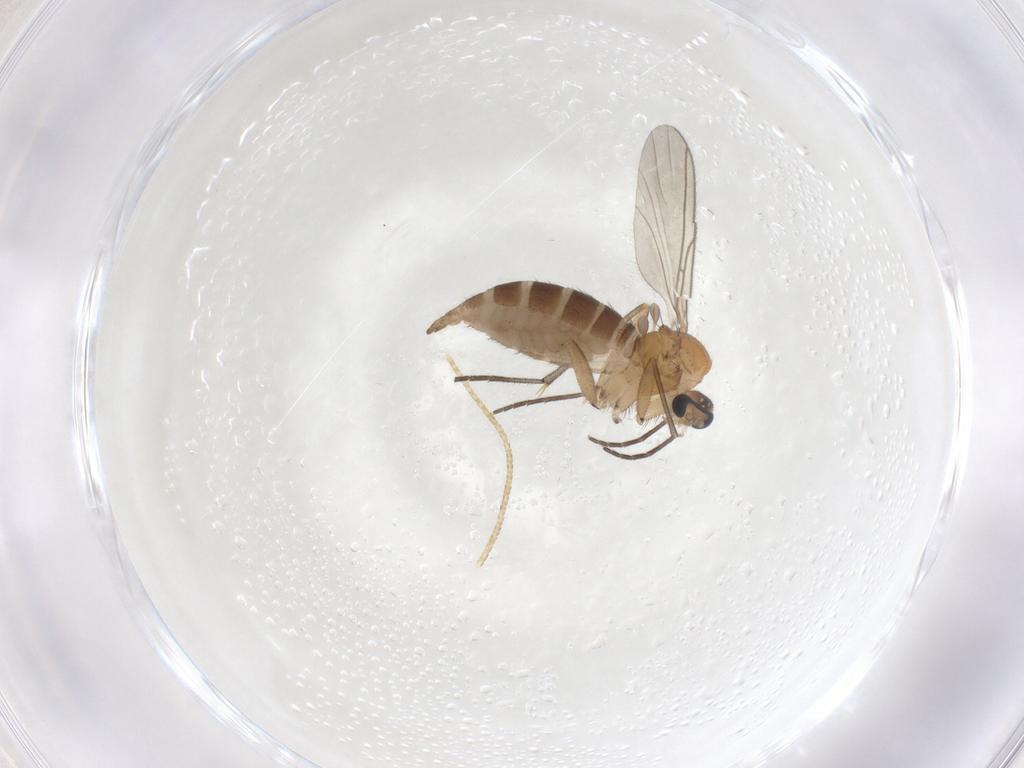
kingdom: Animalia
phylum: Arthropoda
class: Insecta
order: Diptera
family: Sciaridae
